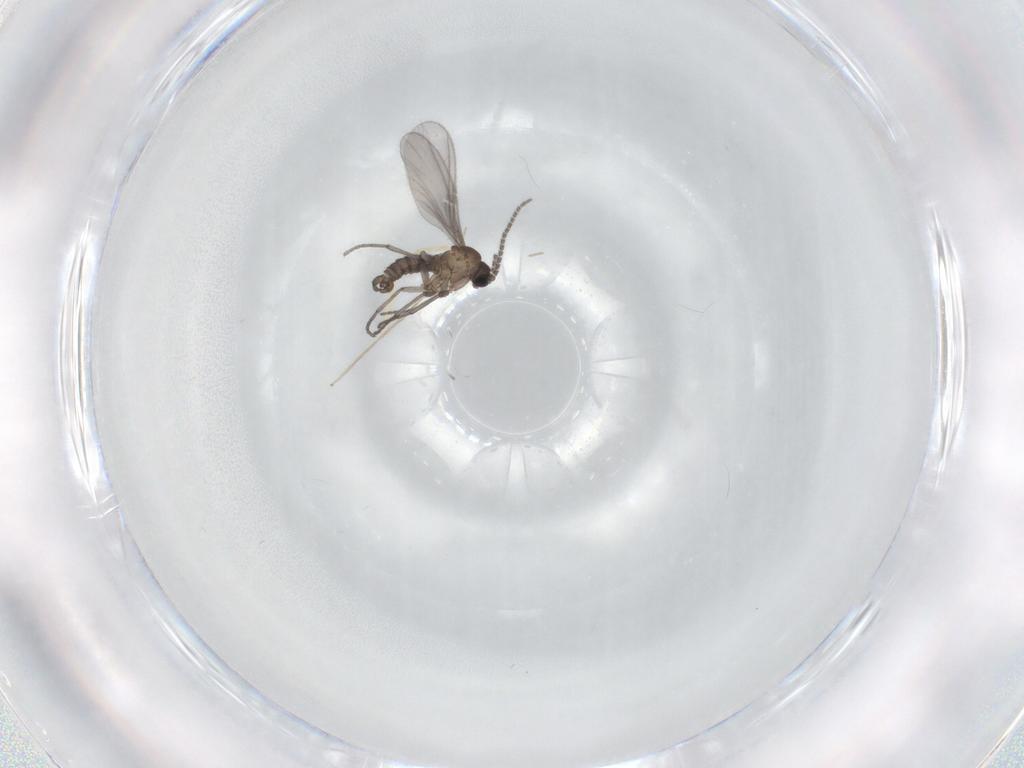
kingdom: Animalia
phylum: Arthropoda
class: Insecta
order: Diptera
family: Sciaridae
